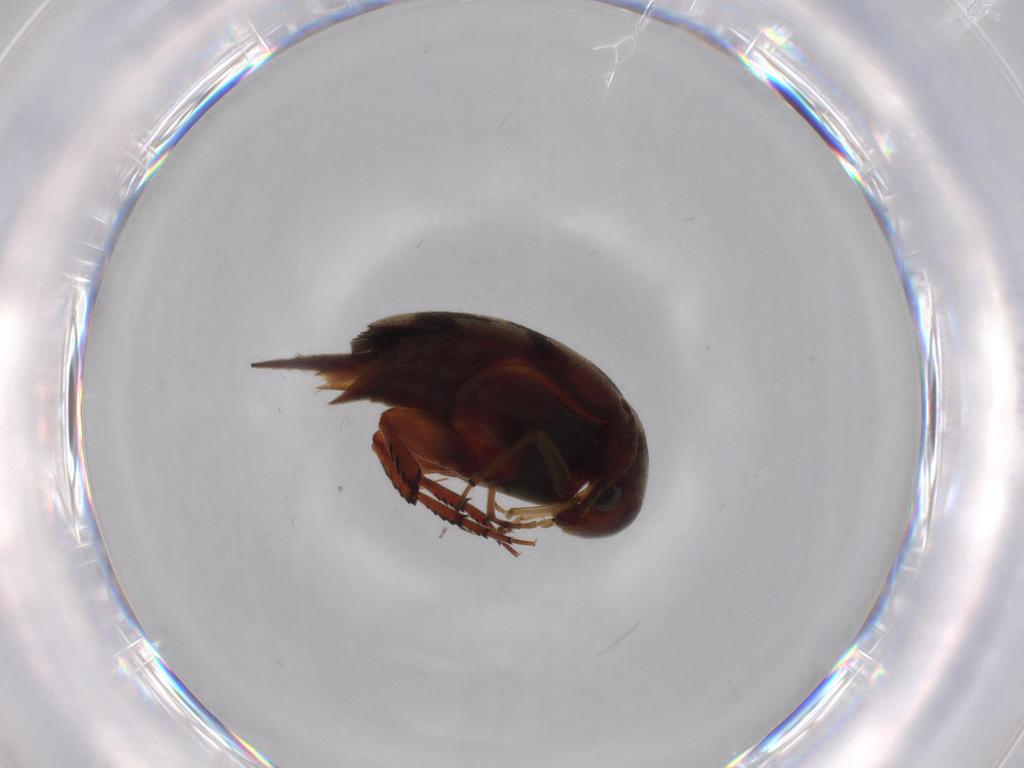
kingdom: Animalia
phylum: Arthropoda
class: Insecta
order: Coleoptera
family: Mordellidae
